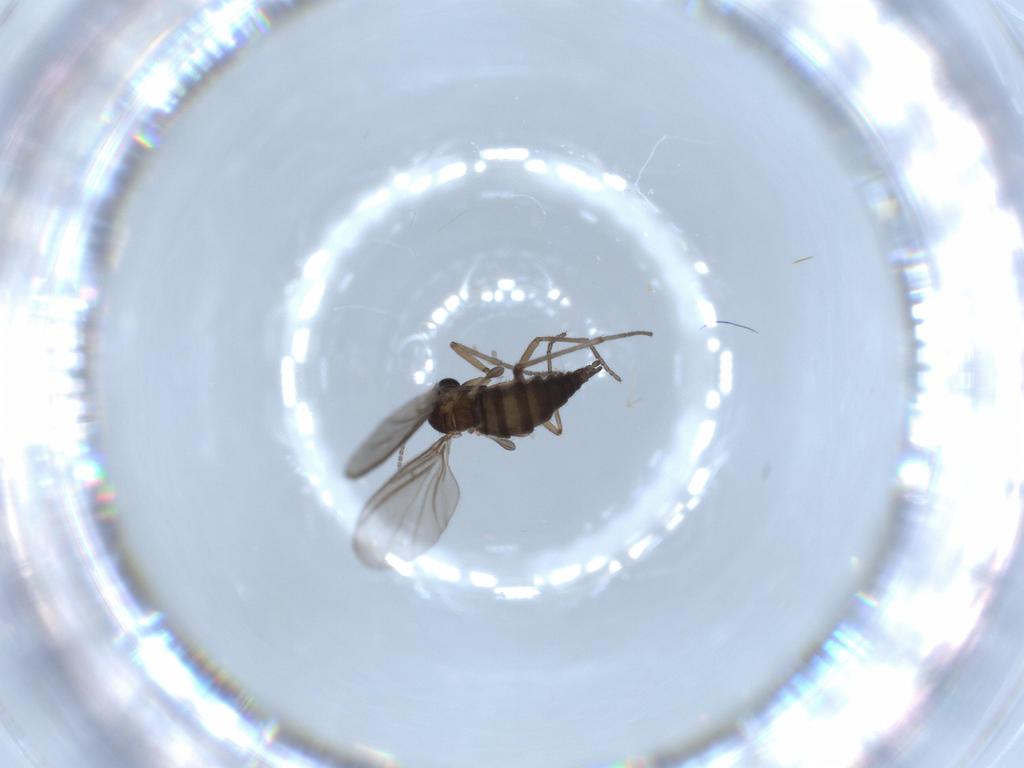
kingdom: Animalia
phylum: Arthropoda
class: Insecta
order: Diptera
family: Sciaridae
